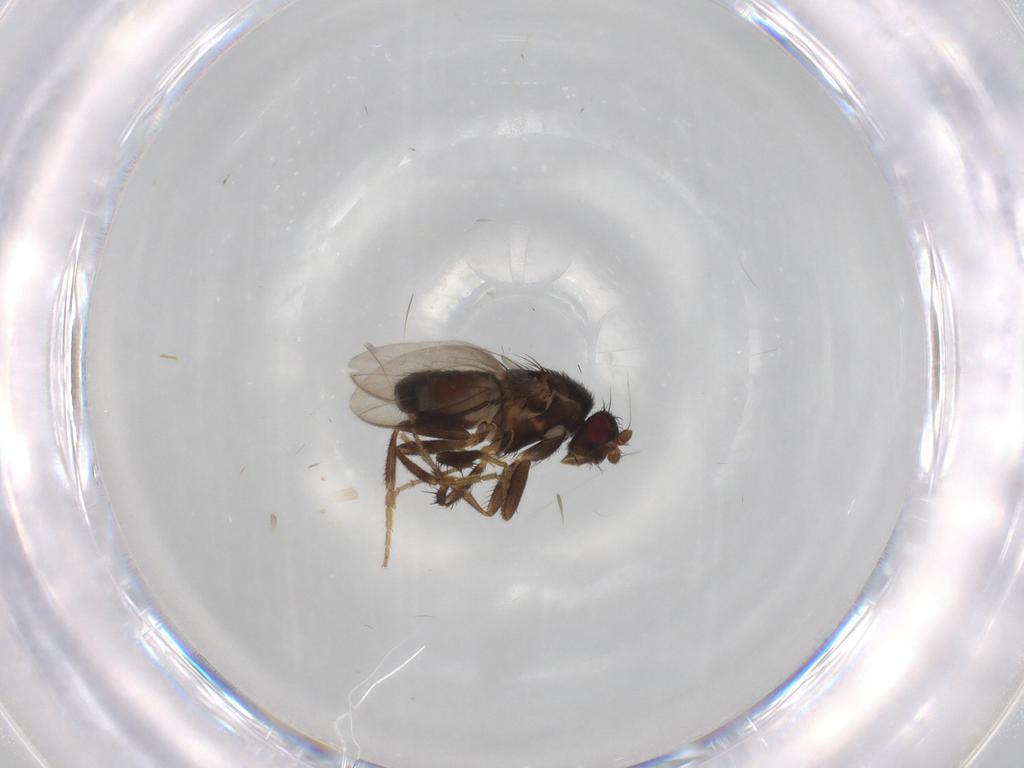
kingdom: Animalia
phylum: Arthropoda
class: Insecta
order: Diptera
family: Sphaeroceridae
